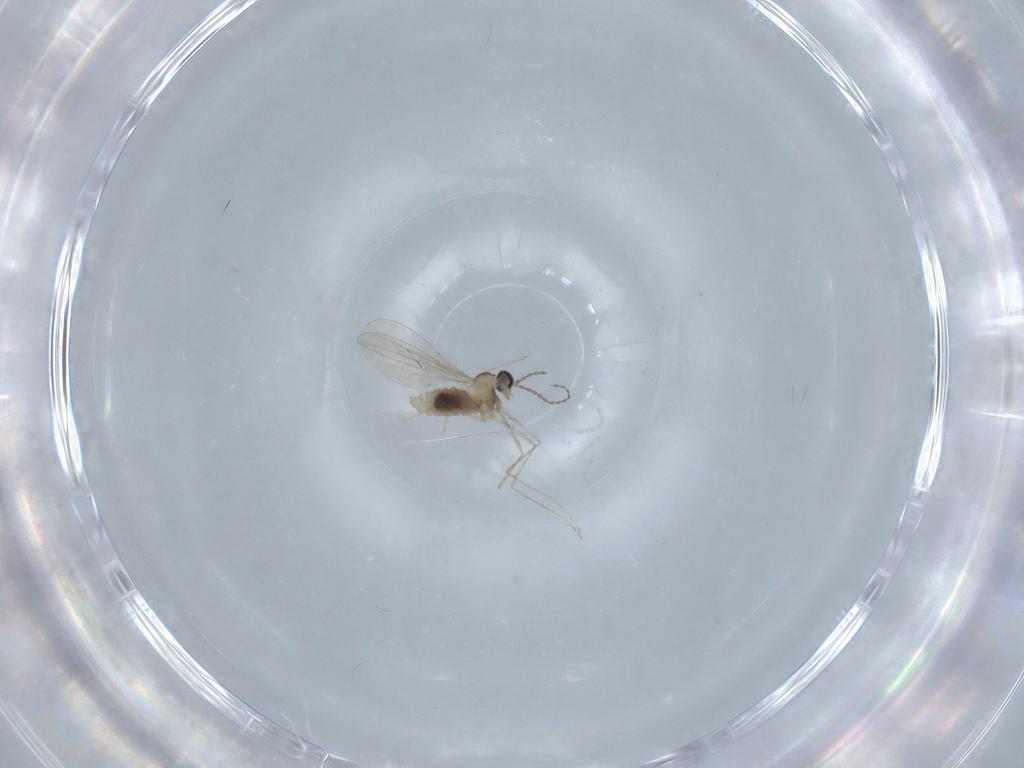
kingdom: Animalia
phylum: Arthropoda
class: Insecta
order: Diptera
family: Cecidomyiidae
